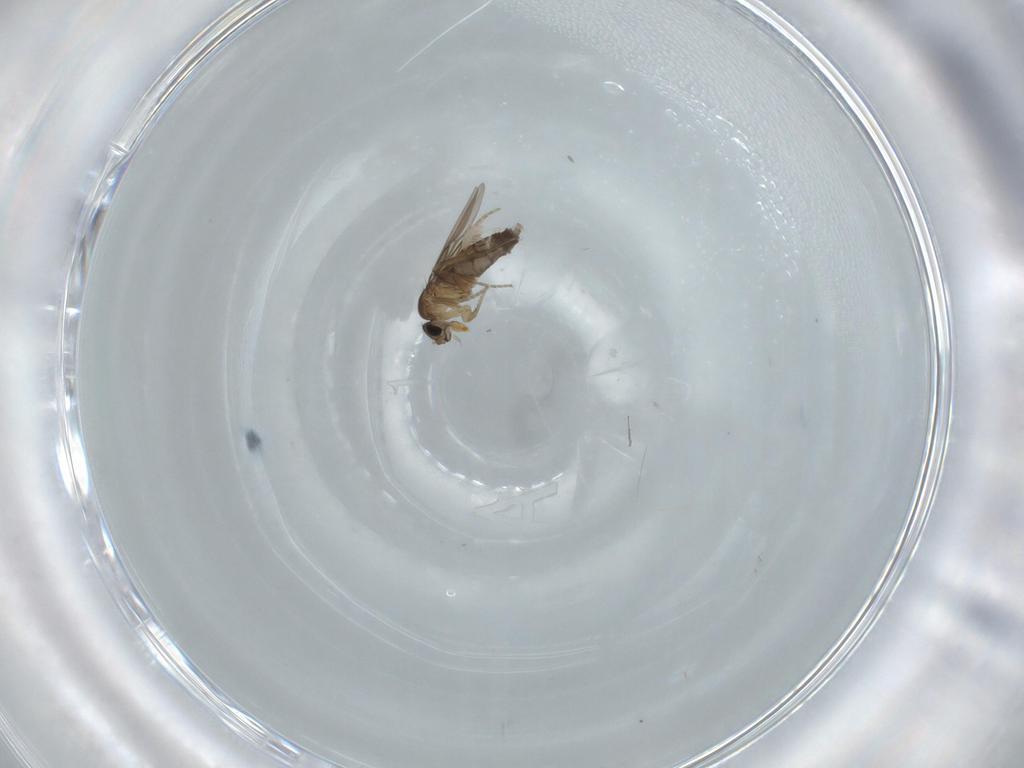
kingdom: Animalia
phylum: Arthropoda
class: Insecta
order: Diptera
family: Phoridae
